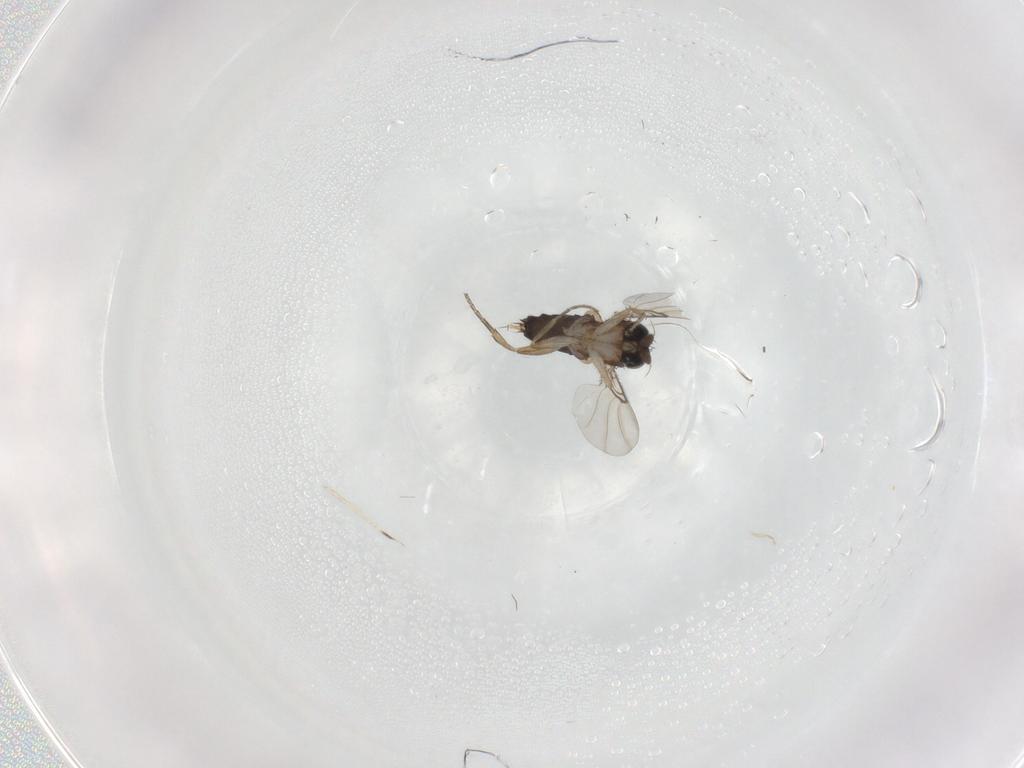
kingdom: Animalia
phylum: Arthropoda
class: Insecta
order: Diptera
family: Phoridae
